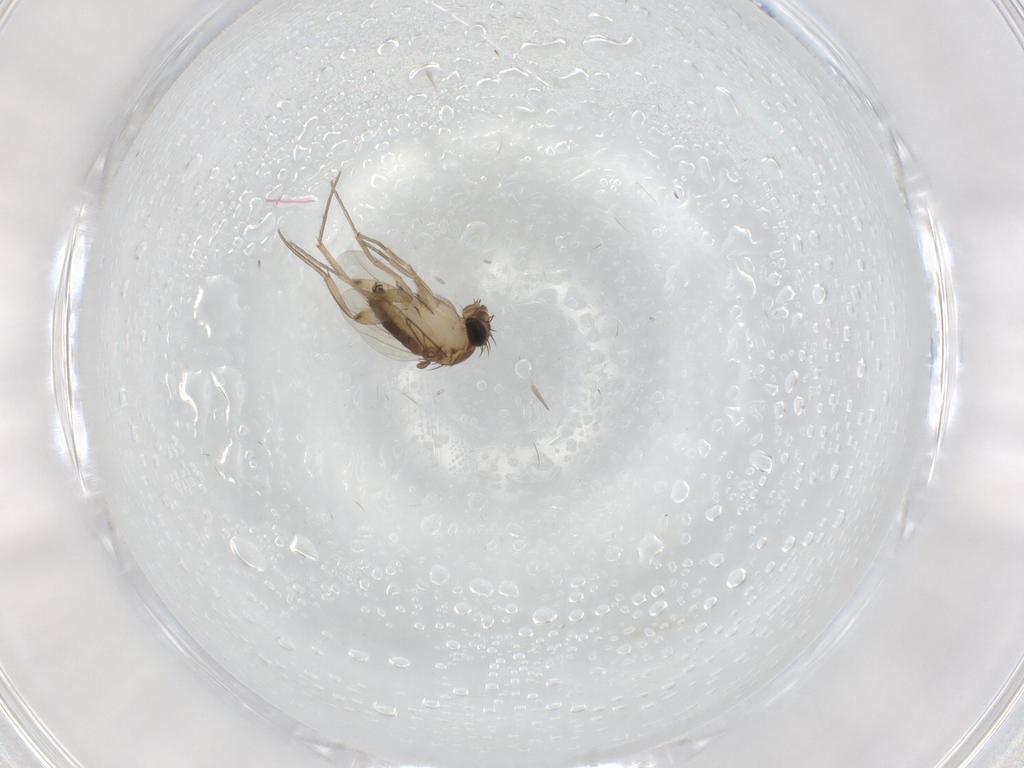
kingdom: Animalia
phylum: Arthropoda
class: Insecta
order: Diptera
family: Phoridae
